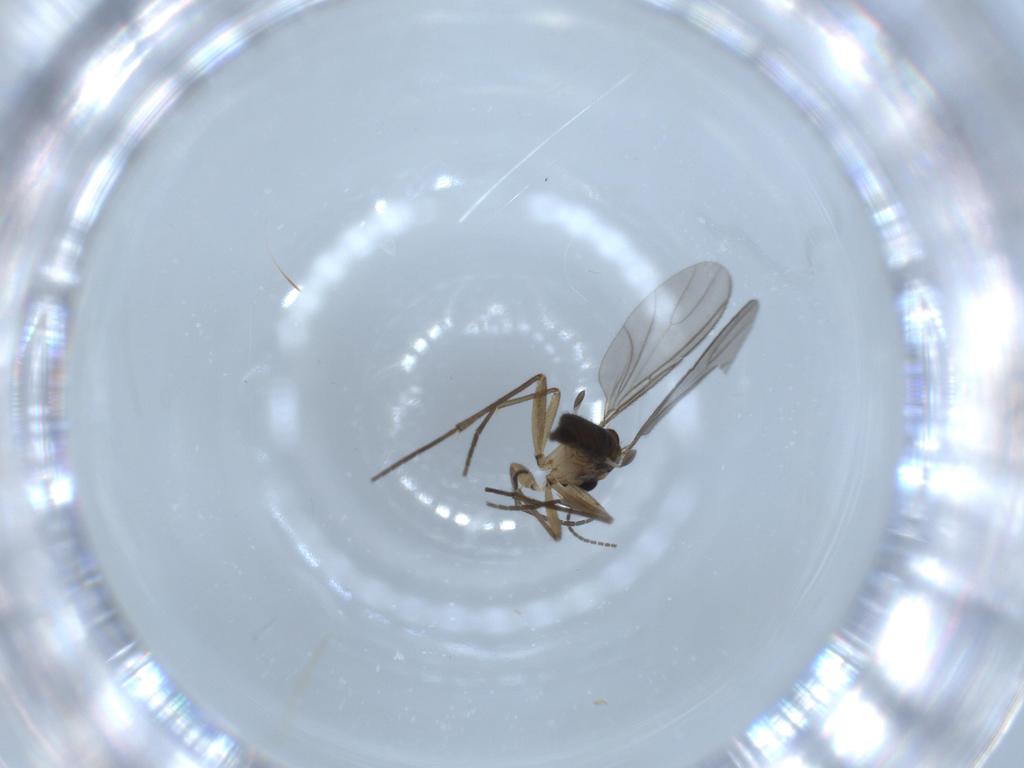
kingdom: Animalia
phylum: Arthropoda
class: Insecta
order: Diptera
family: Sciaridae
